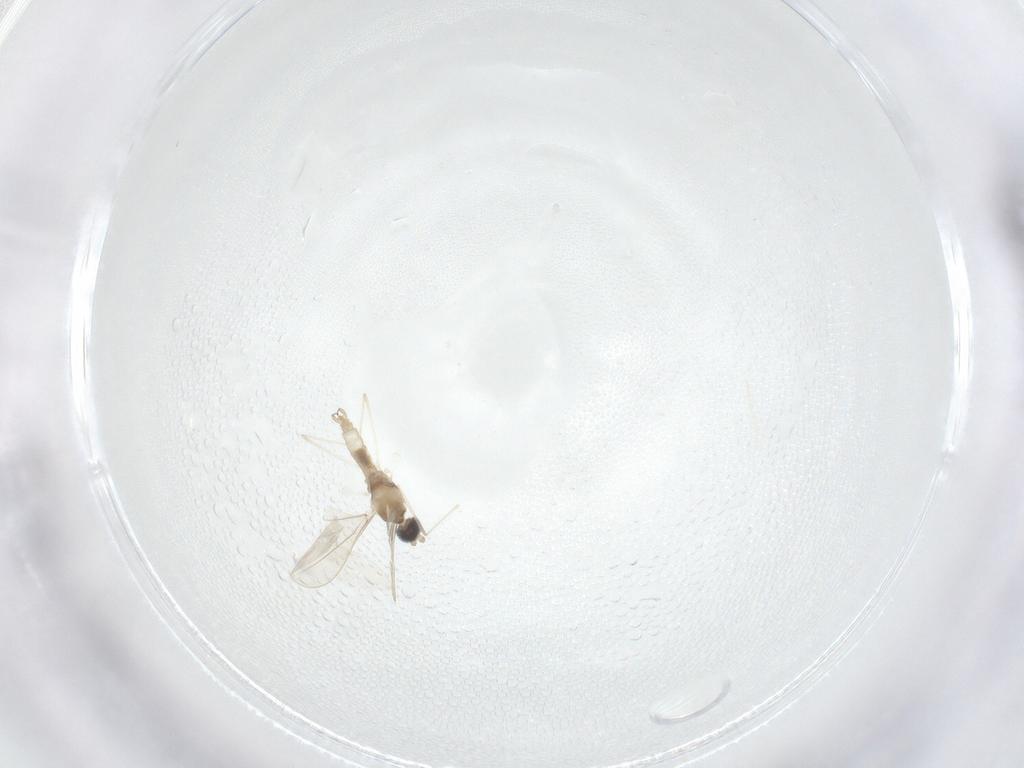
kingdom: Animalia
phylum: Arthropoda
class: Insecta
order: Diptera
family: Cecidomyiidae
